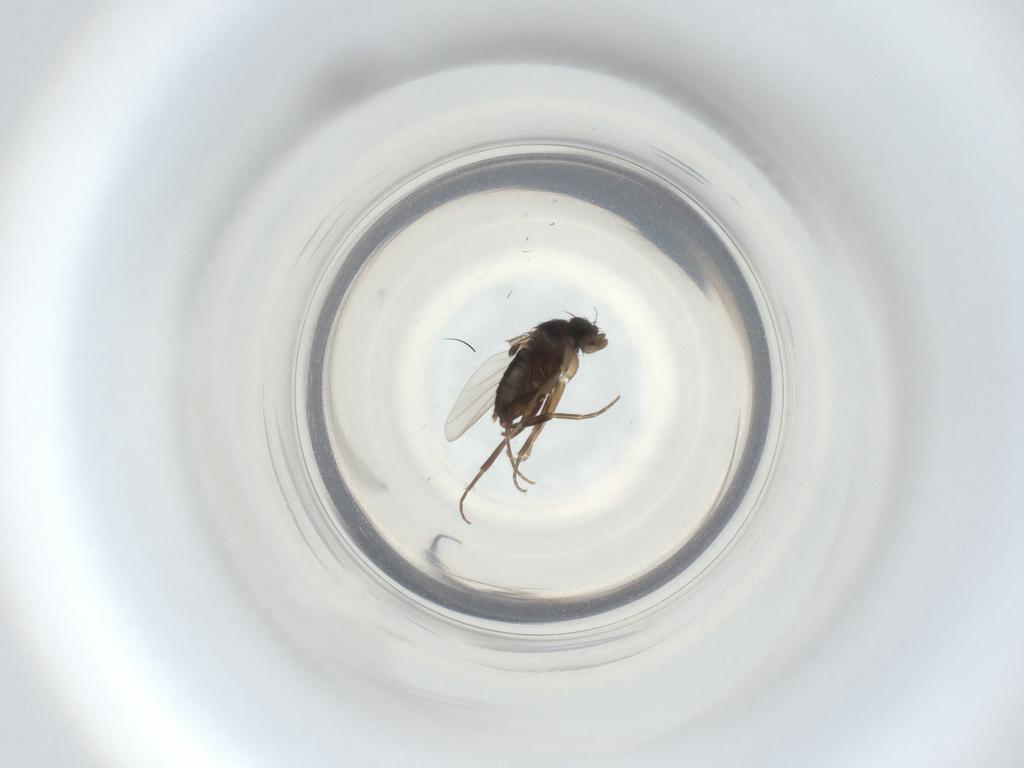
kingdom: Animalia
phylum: Arthropoda
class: Insecta
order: Diptera
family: Phoridae
